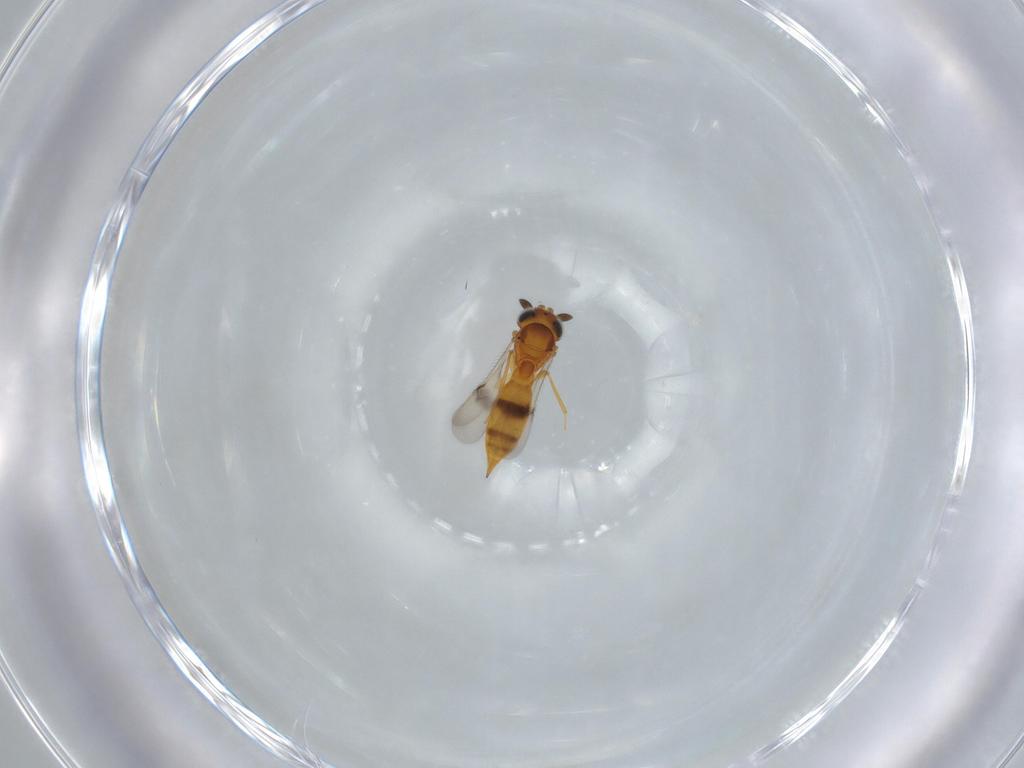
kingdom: Animalia
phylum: Arthropoda
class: Insecta
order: Hymenoptera
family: Scelionidae
